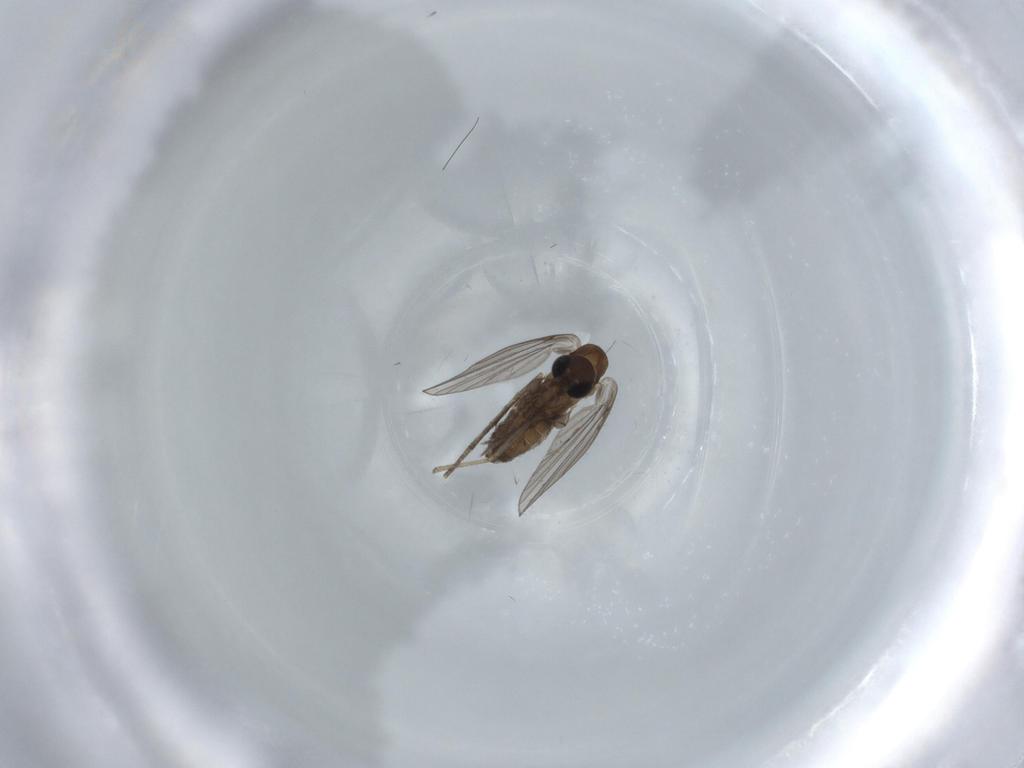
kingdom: Animalia
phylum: Arthropoda
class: Insecta
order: Diptera
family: Psychodidae
